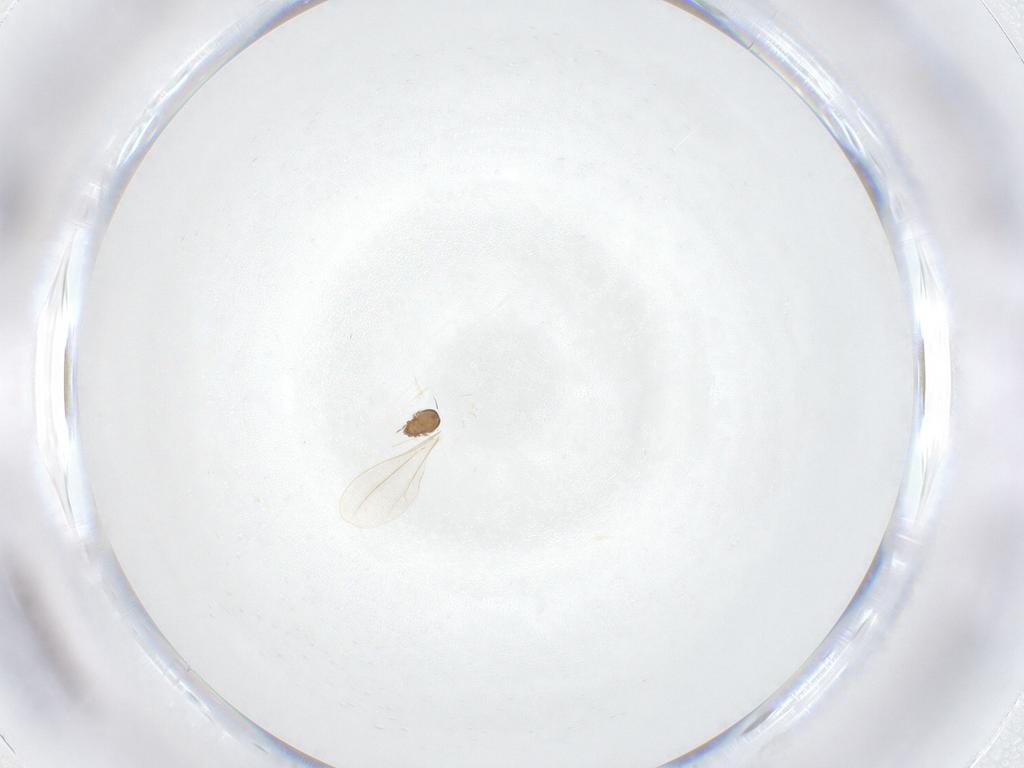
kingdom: Animalia
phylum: Arthropoda
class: Arachnida
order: Sarcoptiformes
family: Micreremidae
